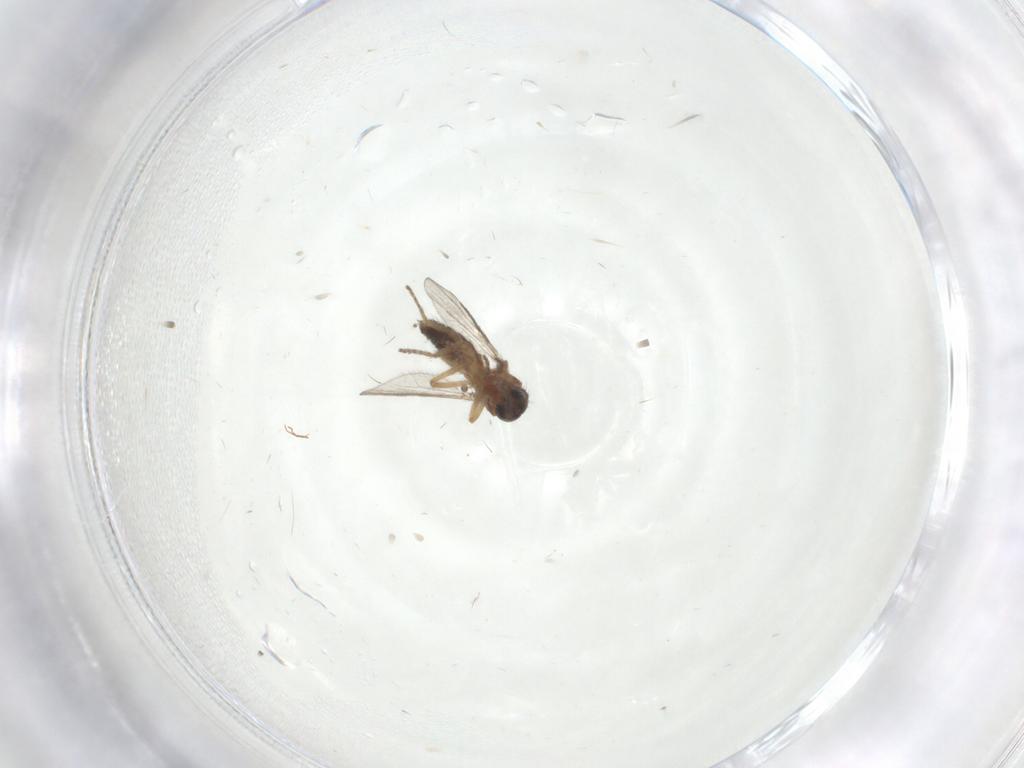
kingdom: Animalia
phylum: Arthropoda
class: Insecta
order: Diptera
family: Ceratopogonidae
